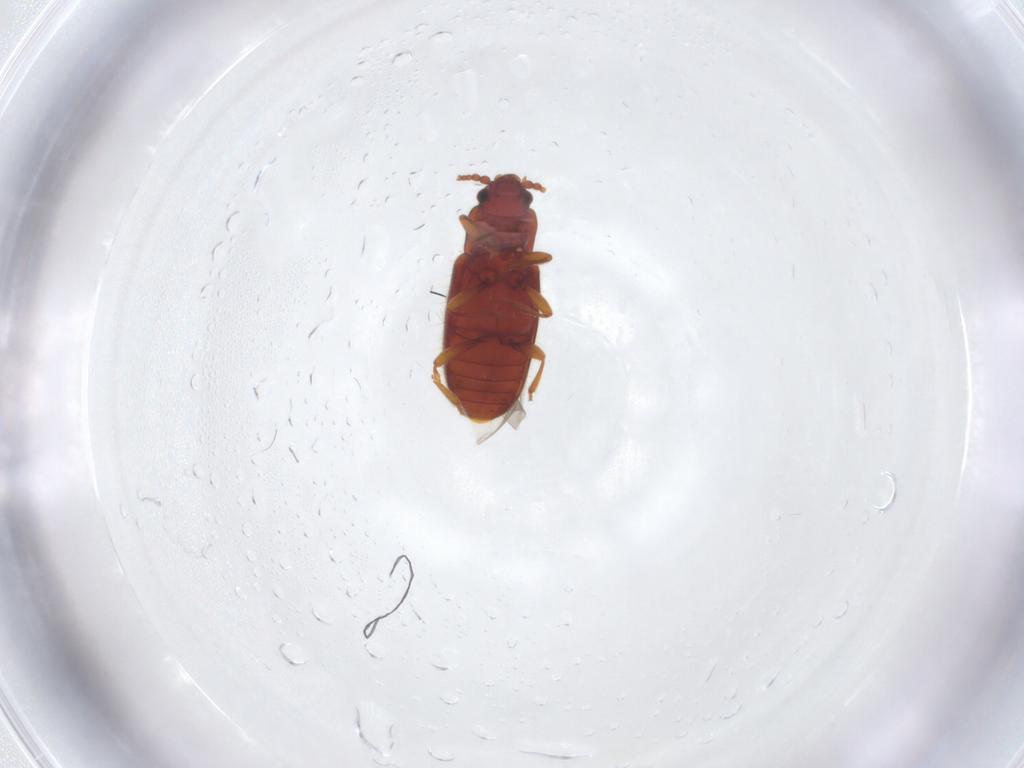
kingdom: Animalia
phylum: Arthropoda
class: Insecta
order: Coleoptera
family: Cryptophagidae
